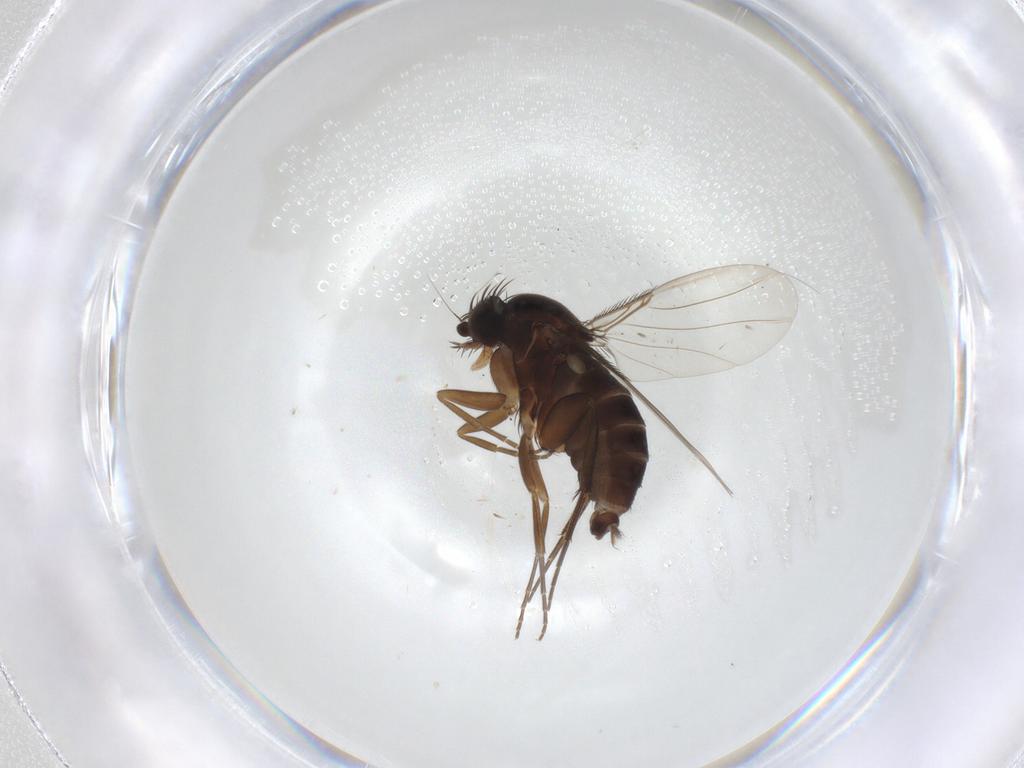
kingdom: Animalia
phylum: Arthropoda
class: Insecta
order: Diptera
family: Phoridae
